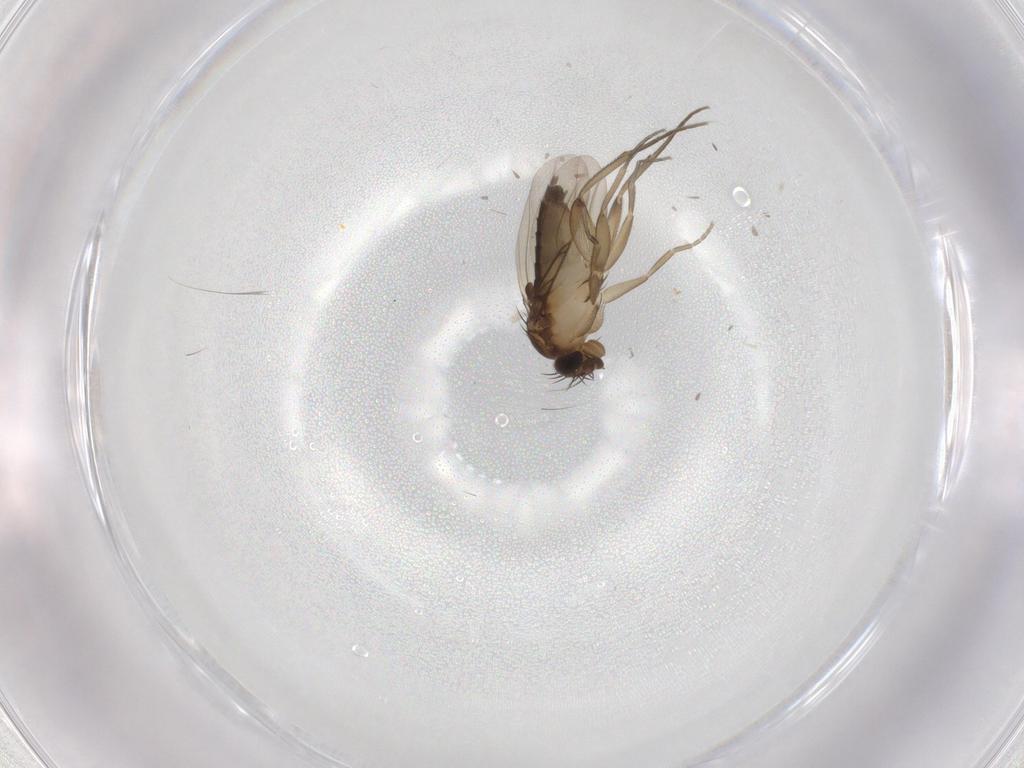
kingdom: Animalia
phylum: Arthropoda
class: Insecta
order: Diptera
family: Phoridae
